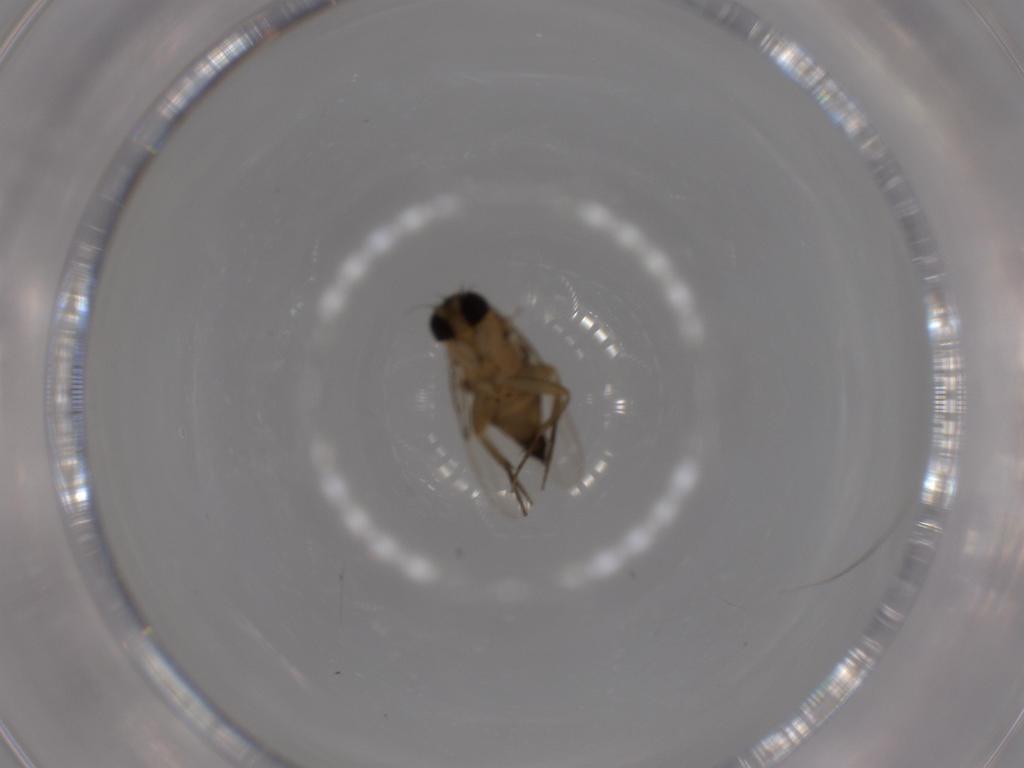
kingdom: Animalia
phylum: Arthropoda
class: Insecta
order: Diptera
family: Phoridae
